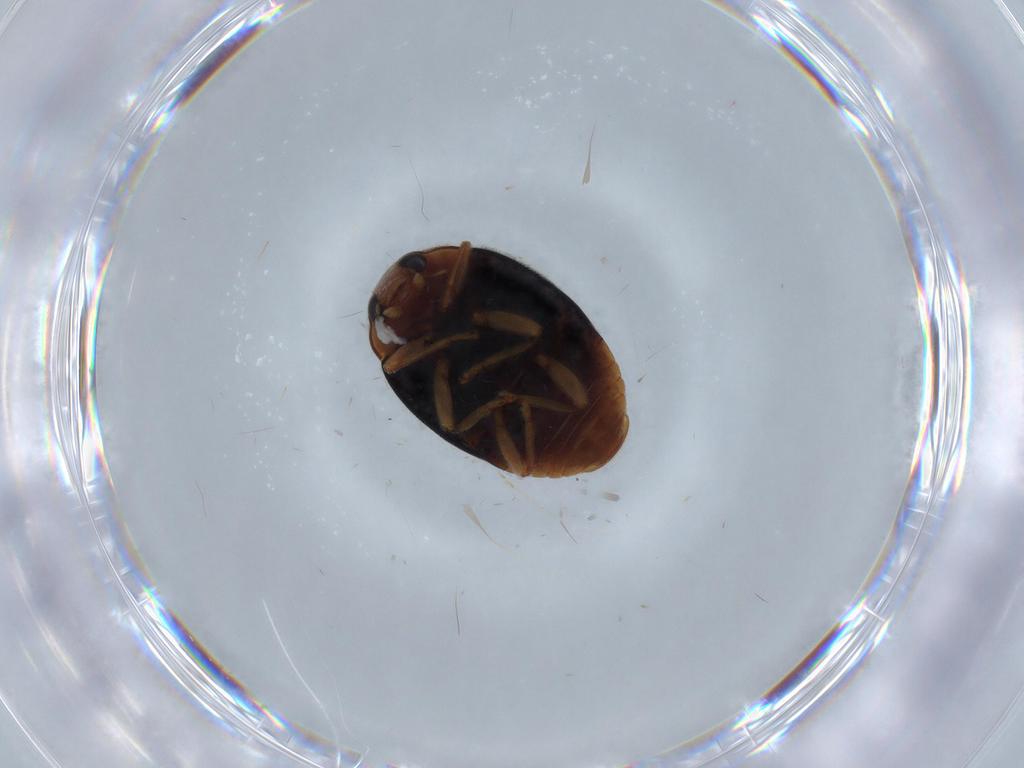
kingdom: Animalia
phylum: Arthropoda
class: Insecta
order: Coleoptera
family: Coccinellidae
